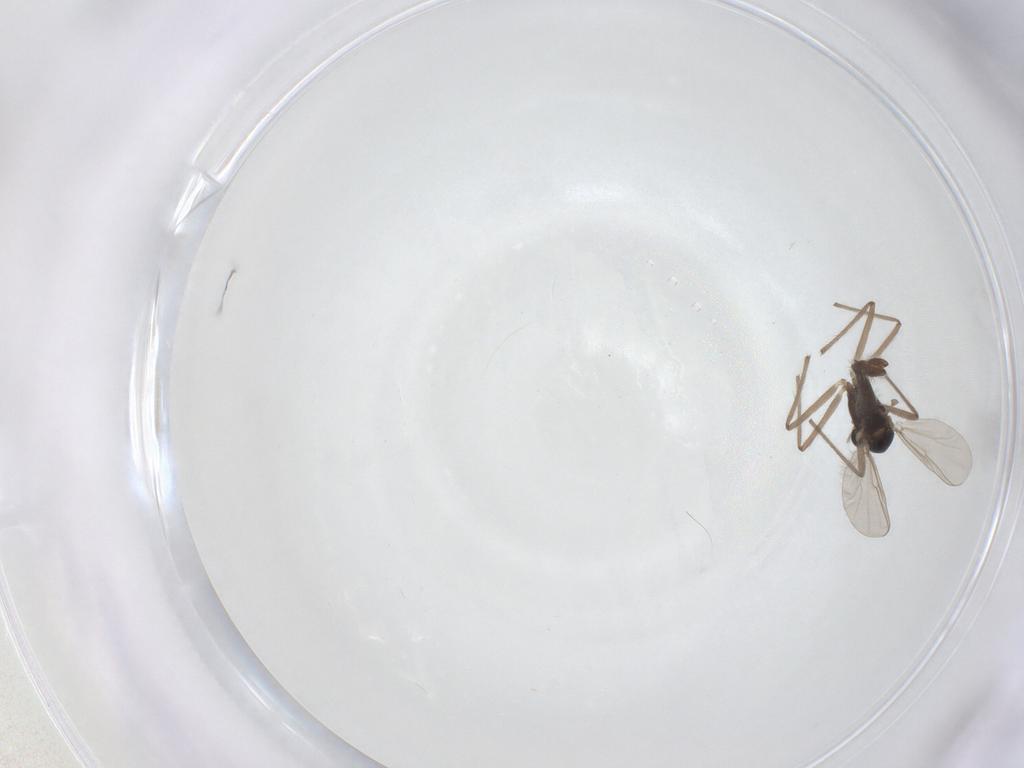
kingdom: Animalia
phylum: Arthropoda
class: Insecta
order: Diptera
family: Chironomidae
